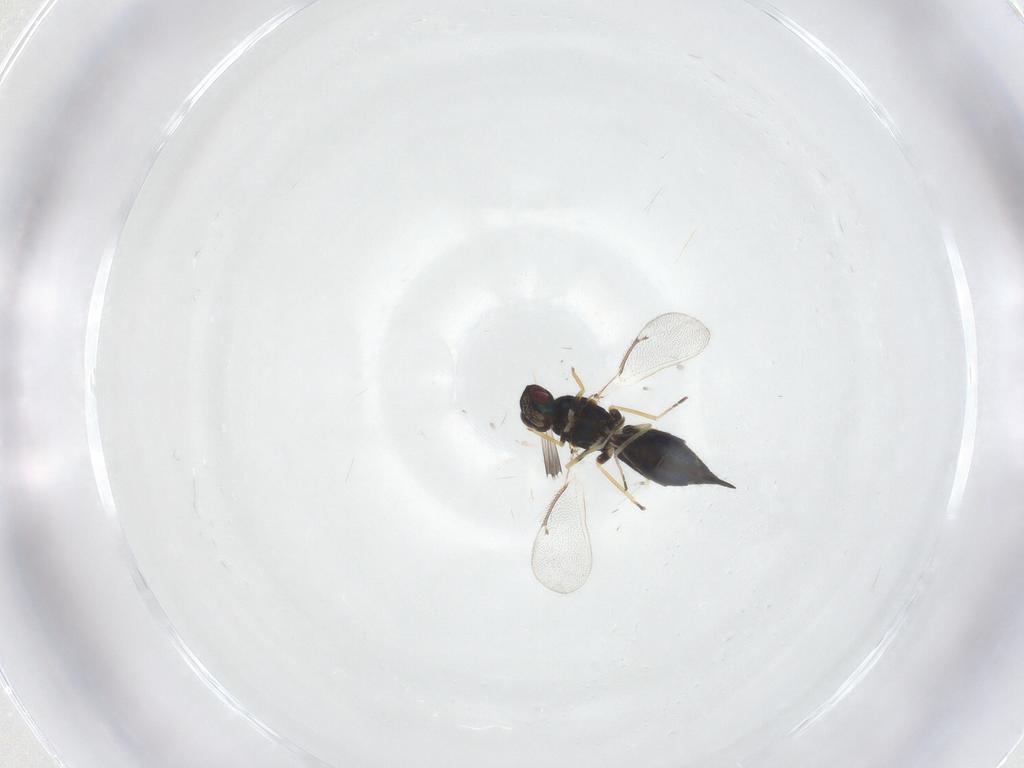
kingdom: Animalia
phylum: Arthropoda
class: Insecta
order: Hymenoptera
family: Eulophidae
